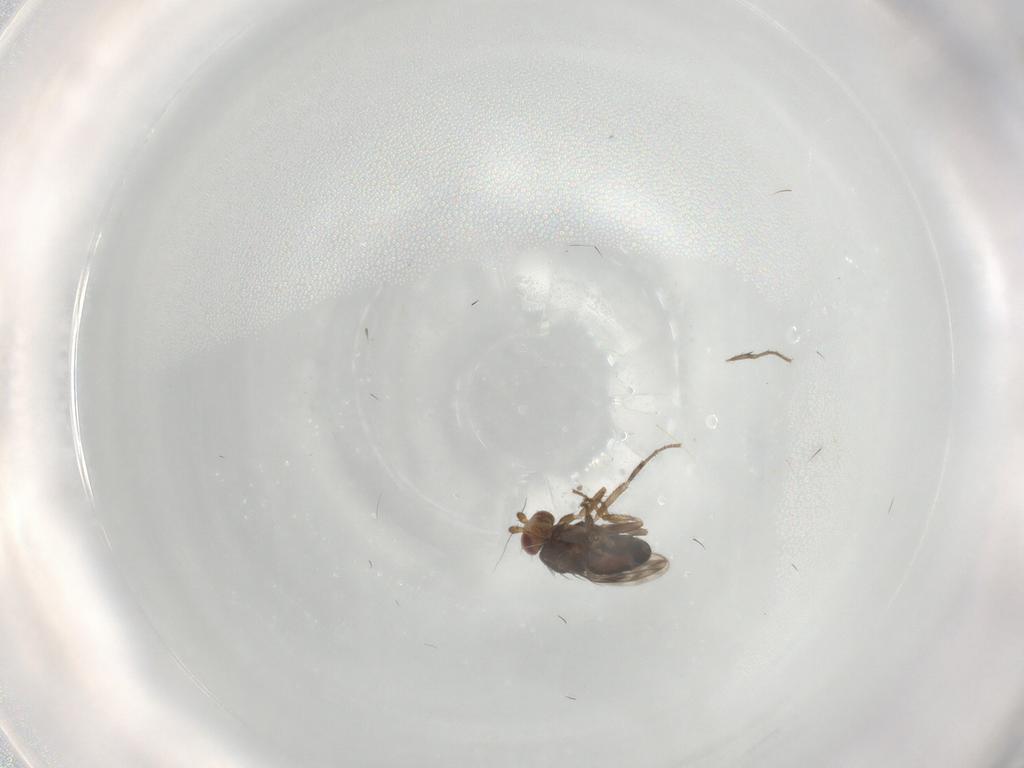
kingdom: Animalia
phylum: Arthropoda
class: Insecta
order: Diptera
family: Sphaeroceridae
